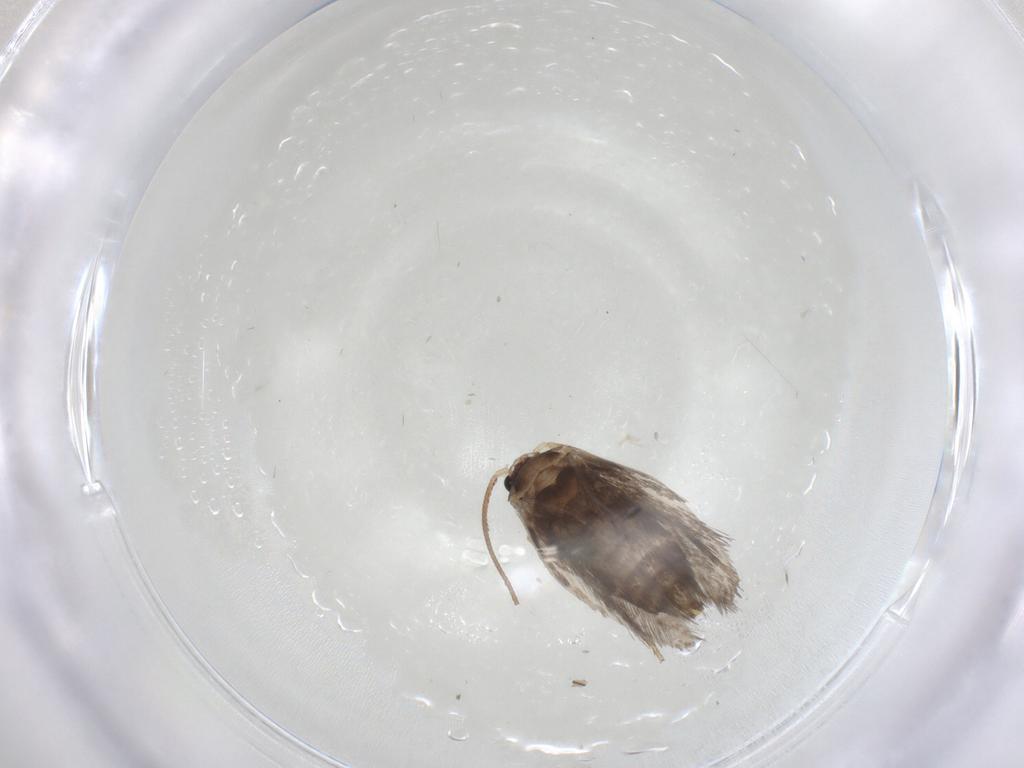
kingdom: Animalia
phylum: Arthropoda
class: Insecta
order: Lepidoptera
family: Nepticulidae
